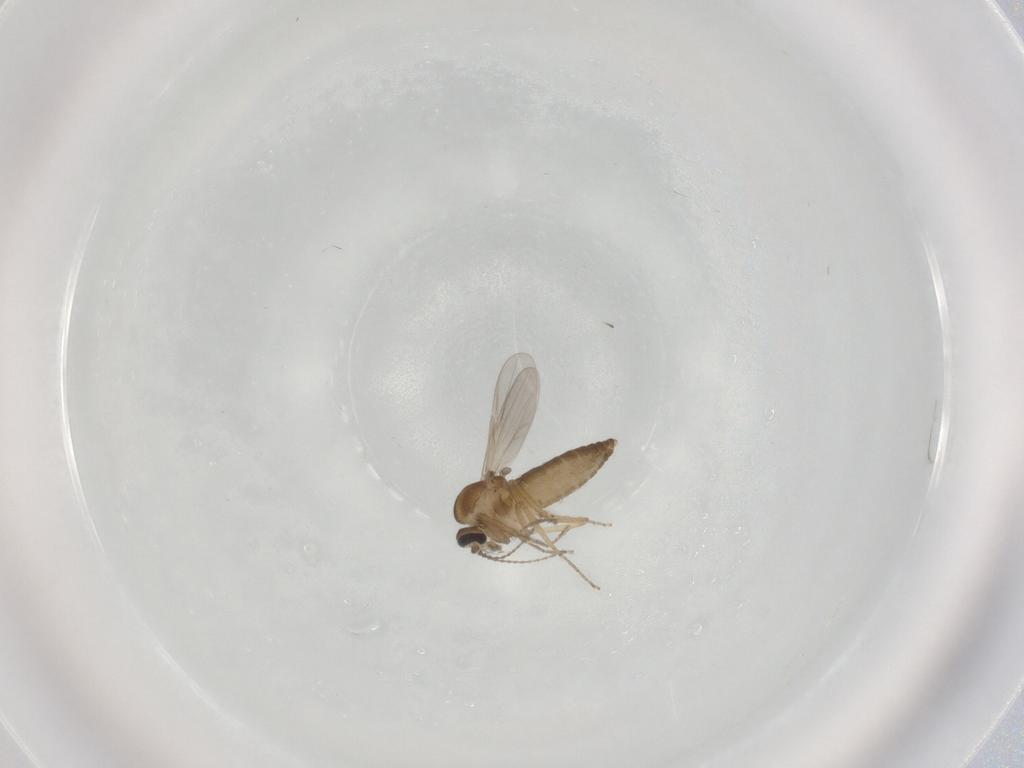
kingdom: Animalia
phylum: Arthropoda
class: Insecta
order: Diptera
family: Ceratopogonidae
